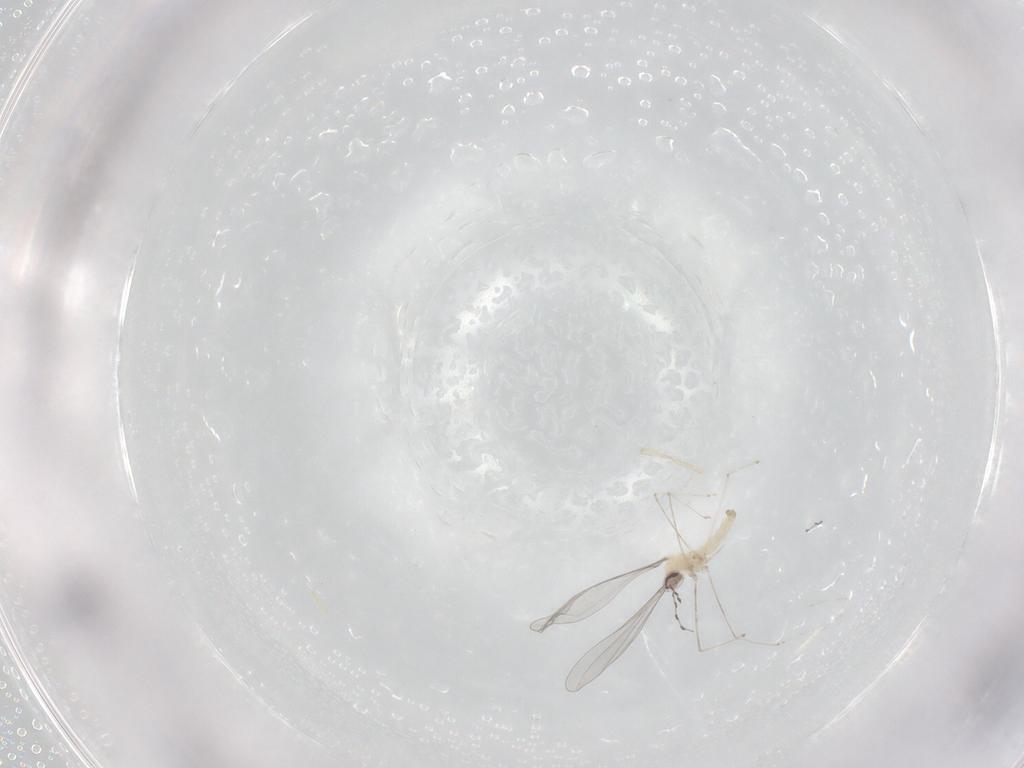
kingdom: Animalia
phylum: Arthropoda
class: Insecta
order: Diptera
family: Cecidomyiidae
